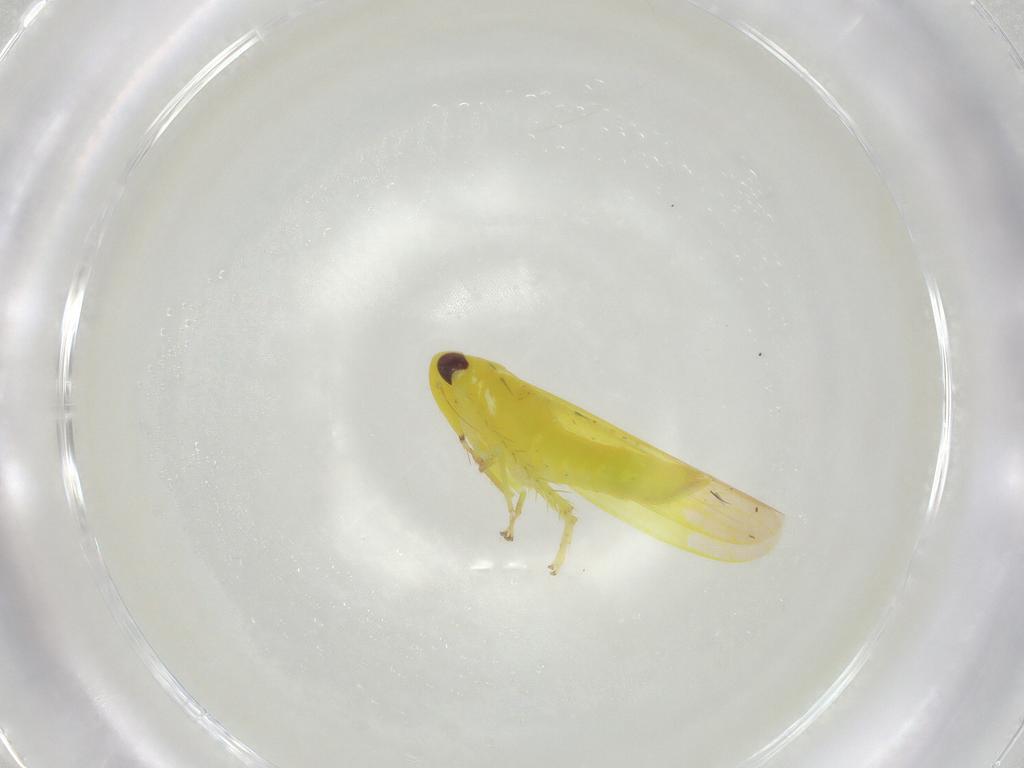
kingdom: Animalia
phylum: Arthropoda
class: Insecta
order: Hemiptera
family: Cicadellidae
